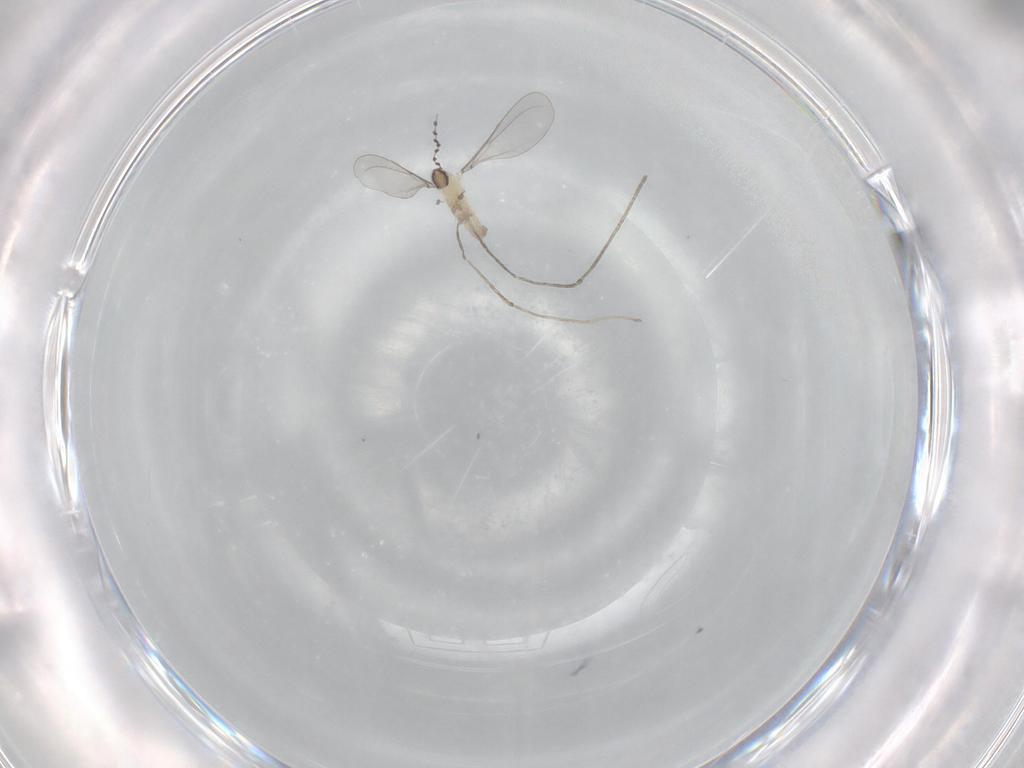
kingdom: Animalia
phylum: Arthropoda
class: Insecta
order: Diptera
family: Cecidomyiidae
